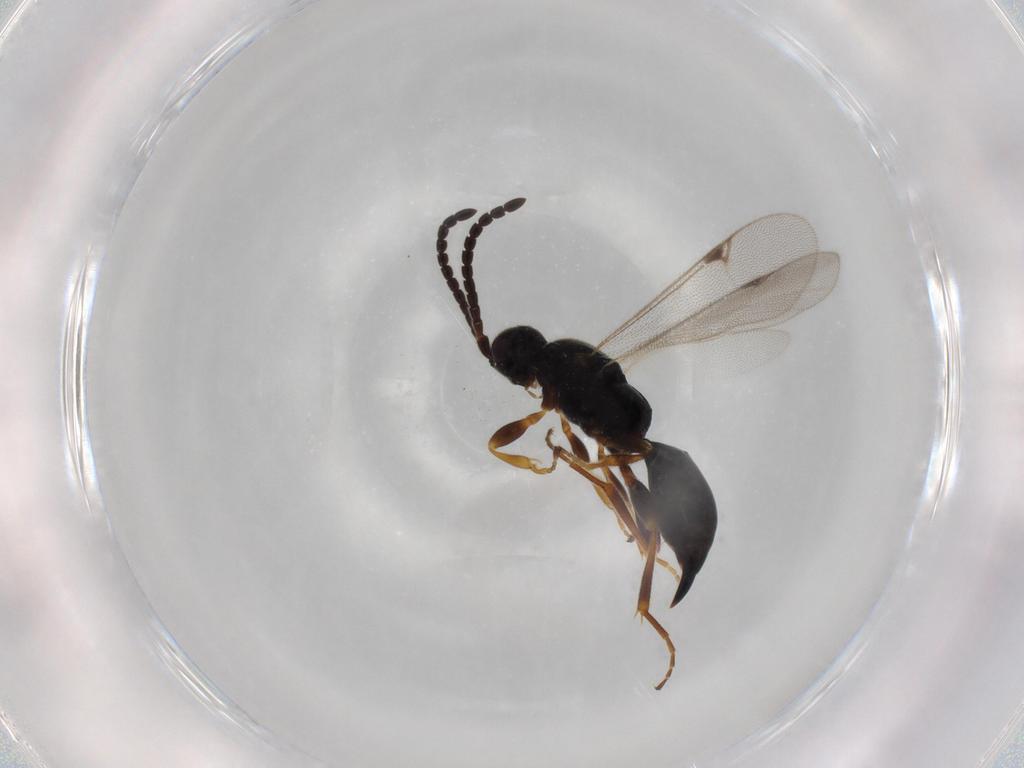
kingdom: Animalia
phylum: Arthropoda
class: Insecta
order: Hymenoptera
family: Proctotrupidae
